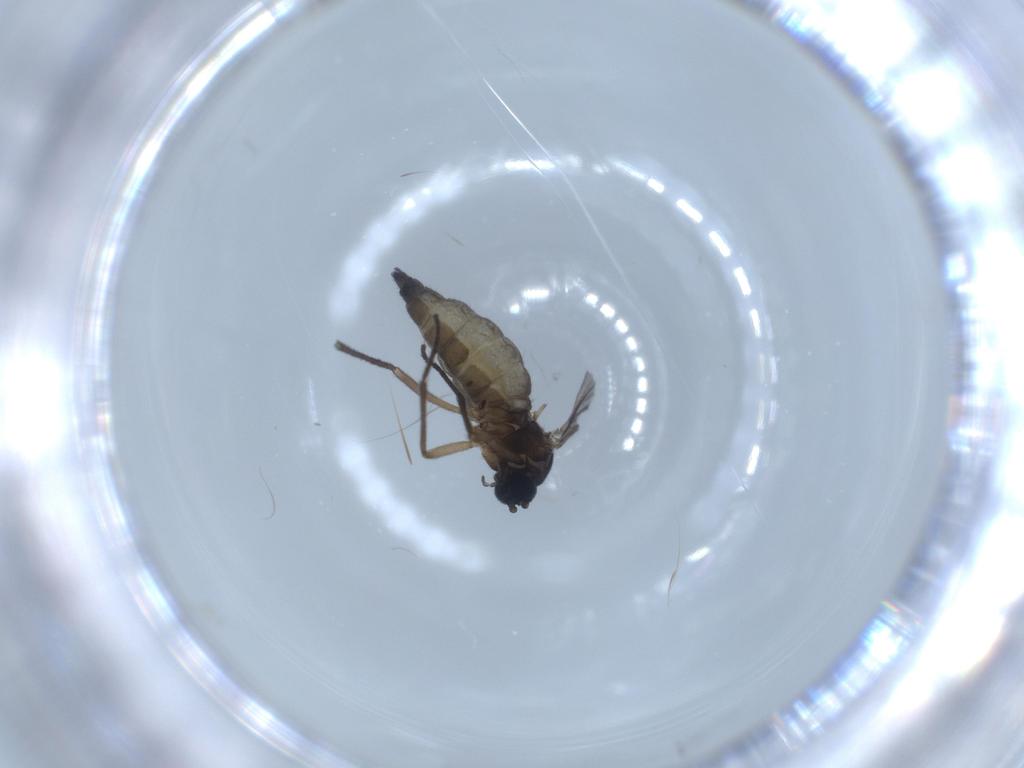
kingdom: Animalia
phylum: Arthropoda
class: Insecta
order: Diptera
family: Sciaridae
